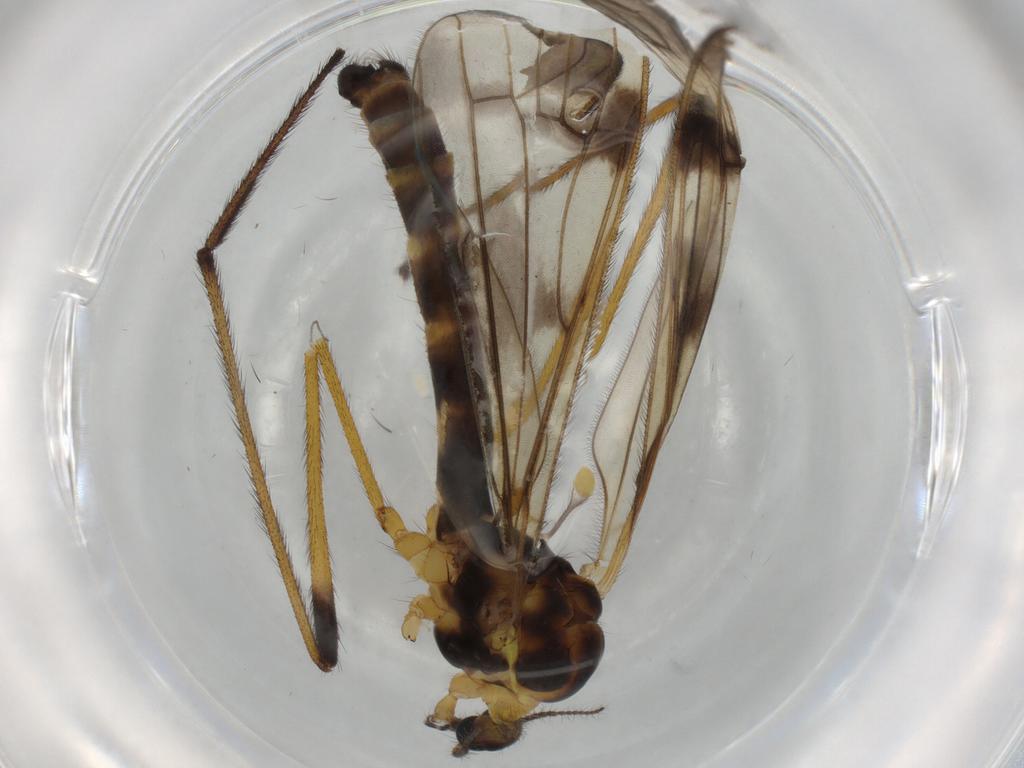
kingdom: Animalia
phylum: Arthropoda
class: Insecta
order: Diptera
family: Limoniidae
